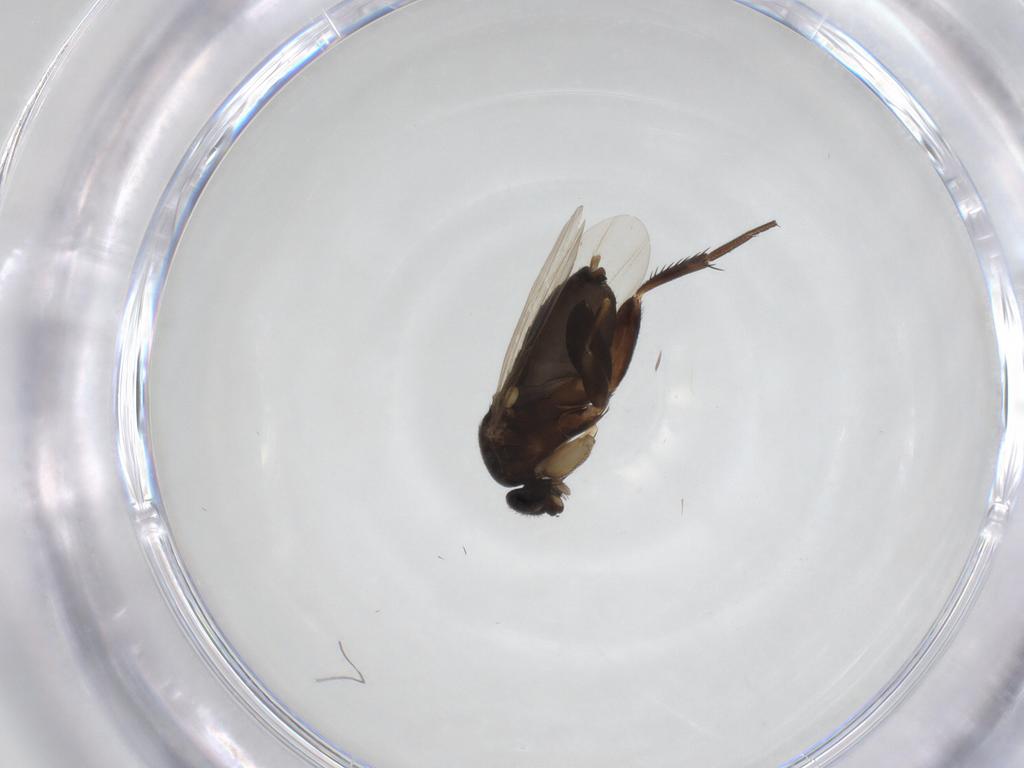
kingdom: Animalia
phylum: Arthropoda
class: Insecta
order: Diptera
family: Phoridae
